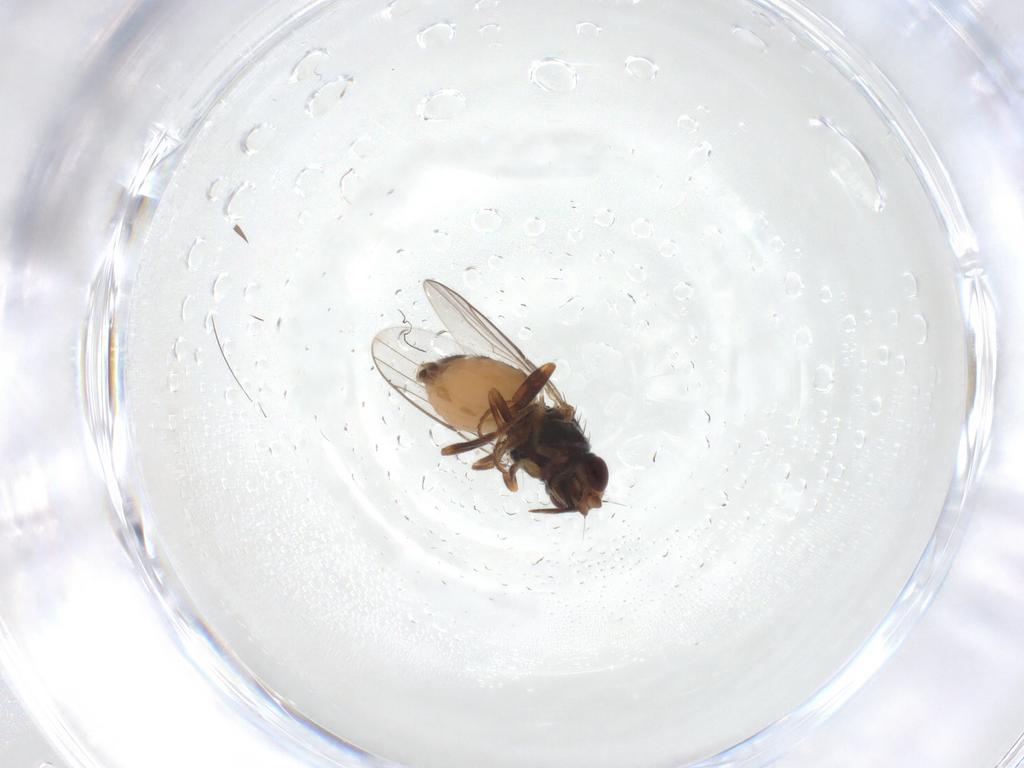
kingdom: Animalia
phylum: Arthropoda
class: Insecta
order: Diptera
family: Chloropidae
